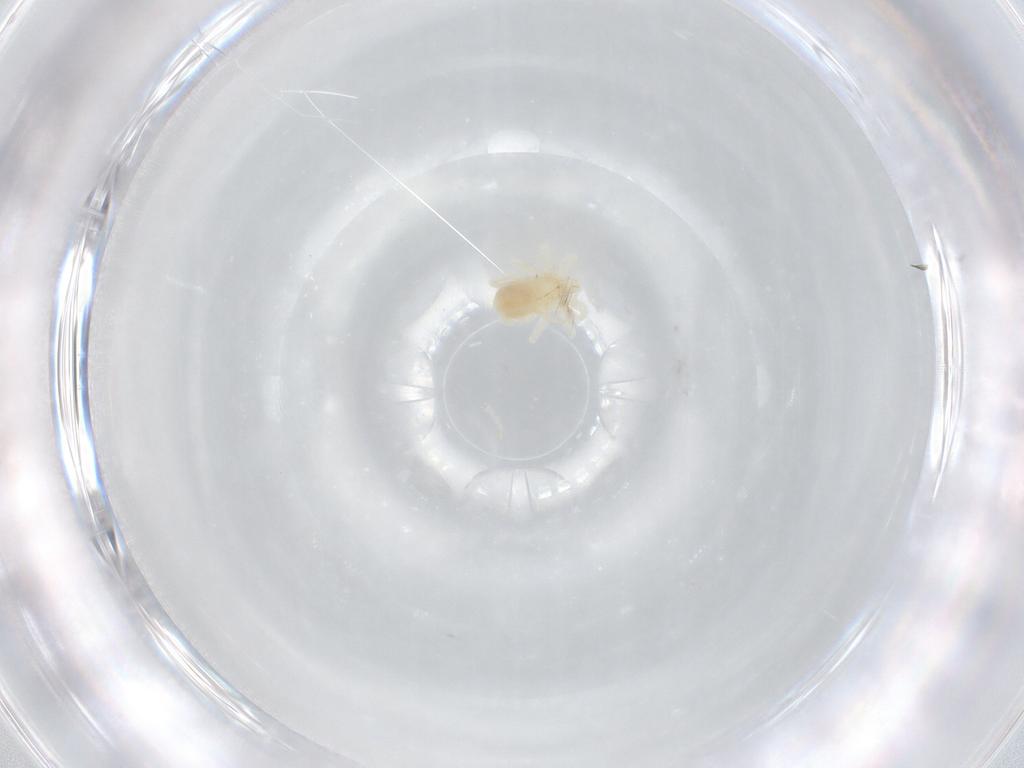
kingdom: Animalia
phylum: Arthropoda
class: Arachnida
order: Trombidiformes
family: Anystidae
